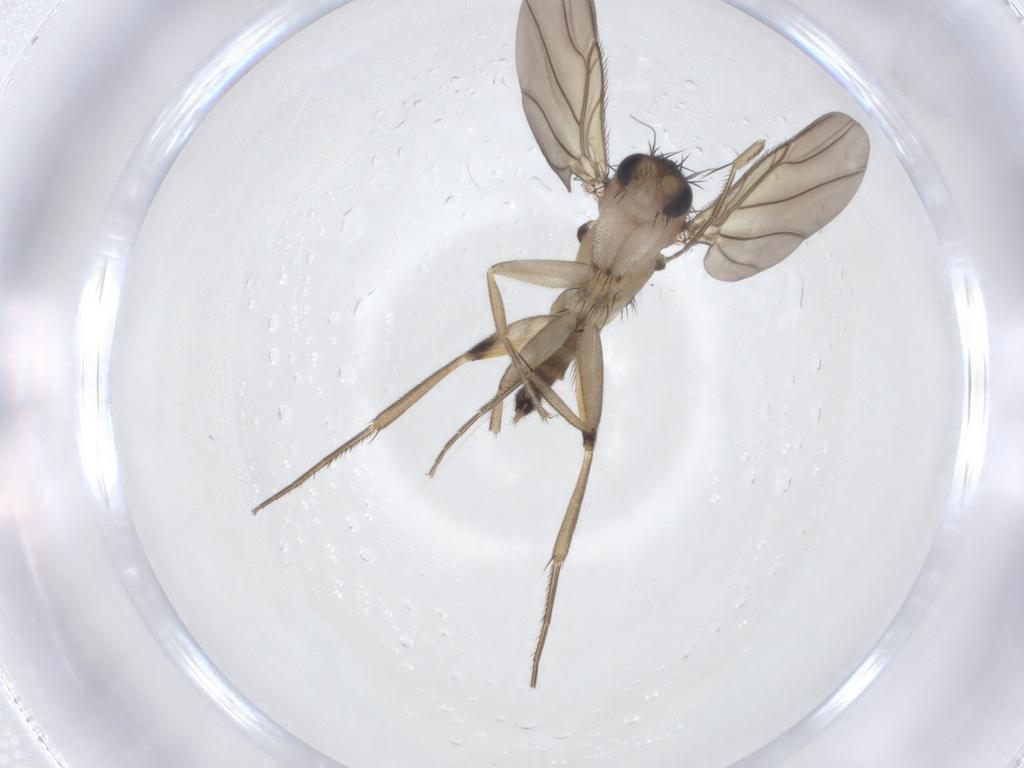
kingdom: Animalia
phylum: Arthropoda
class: Insecta
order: Diptera
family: Phoridae
